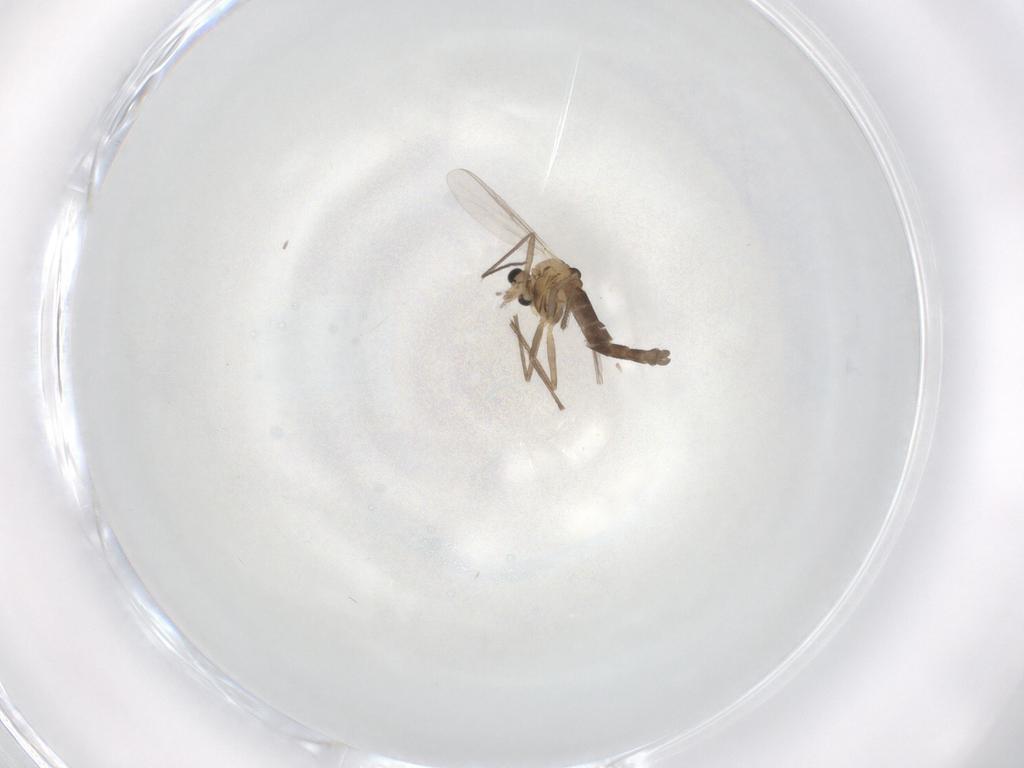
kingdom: Animalia
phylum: Arthropoda
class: Insecta
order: Diptera
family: Chironomidae
